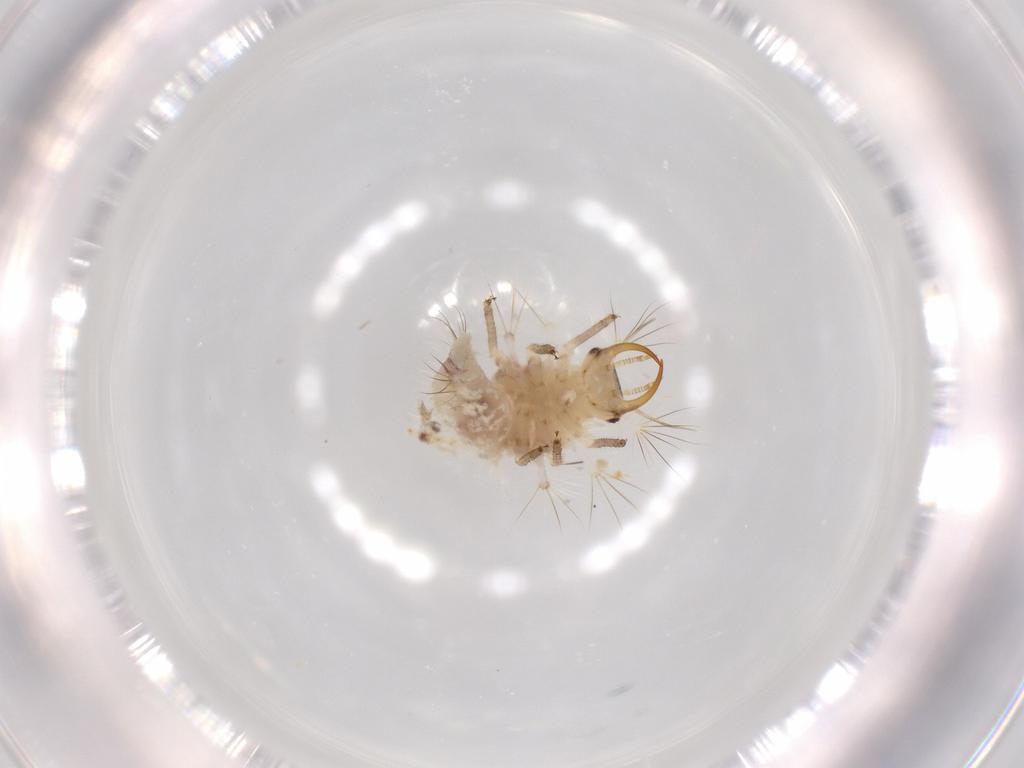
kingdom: Animalia
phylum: Arthropoda
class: Insecta
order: Neuroptera
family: Chrysopidae
